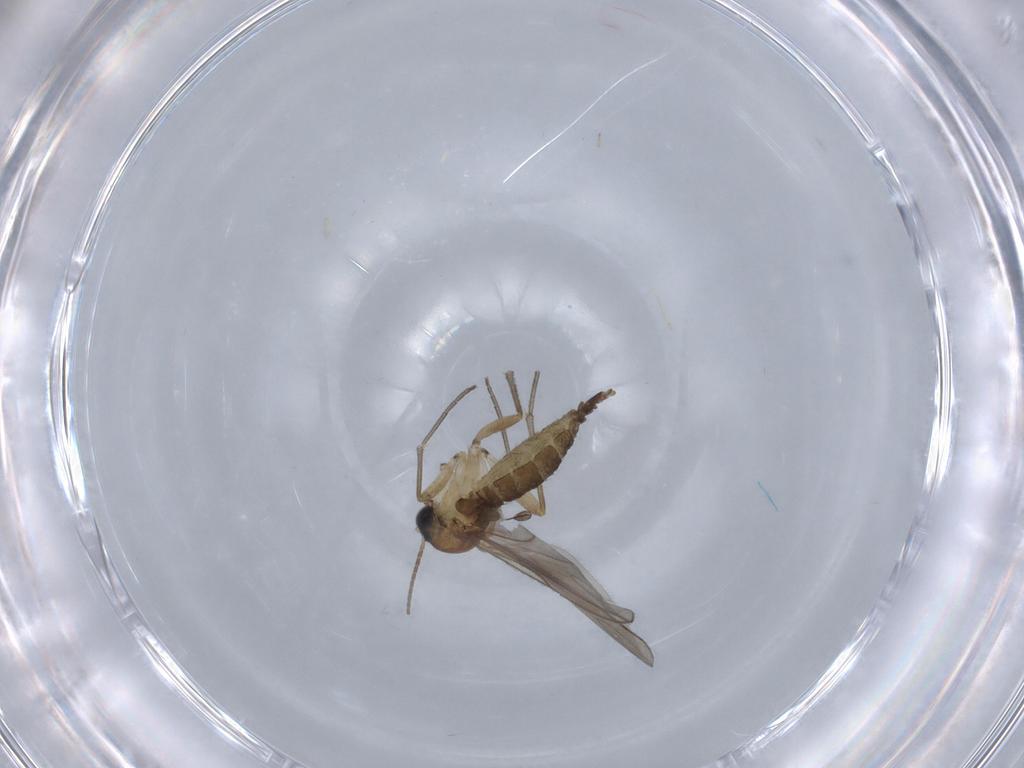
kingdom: Animalia
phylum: Arthropoda
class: Insecta
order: Diptera
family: Sciaridae
